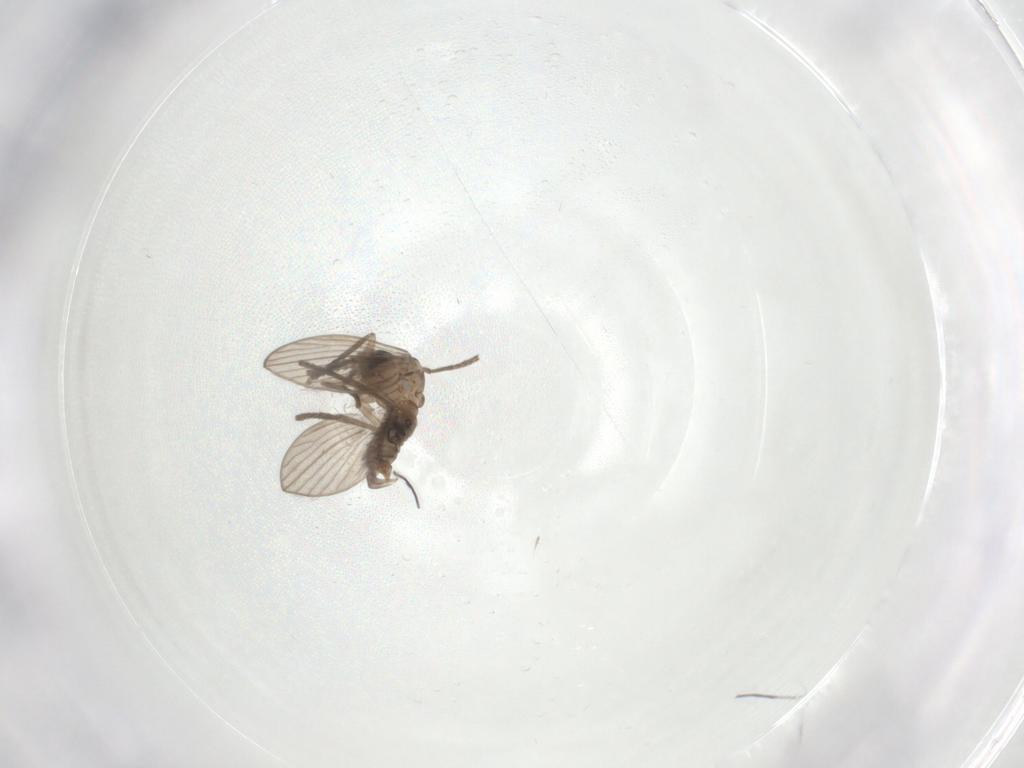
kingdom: Animalia
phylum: Arthropoda
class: Insecta
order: Diptera
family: Psychodidae
